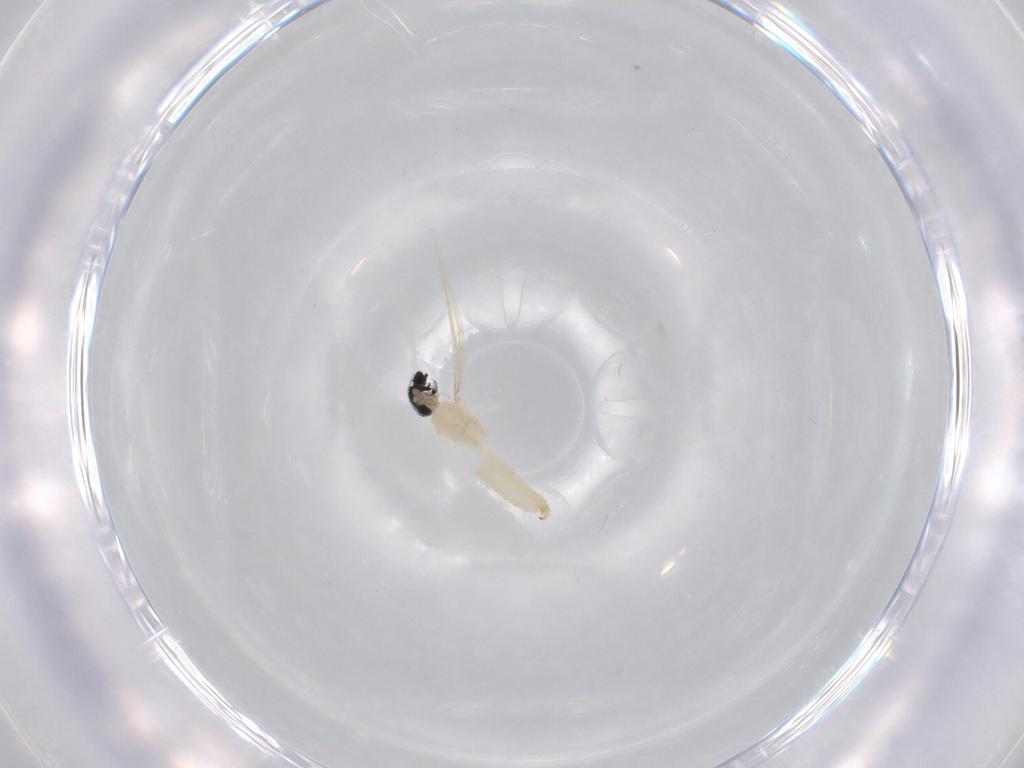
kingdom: Animalia
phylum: Arthropoda
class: Insecta
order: Diptera
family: Cecidomyiidae
